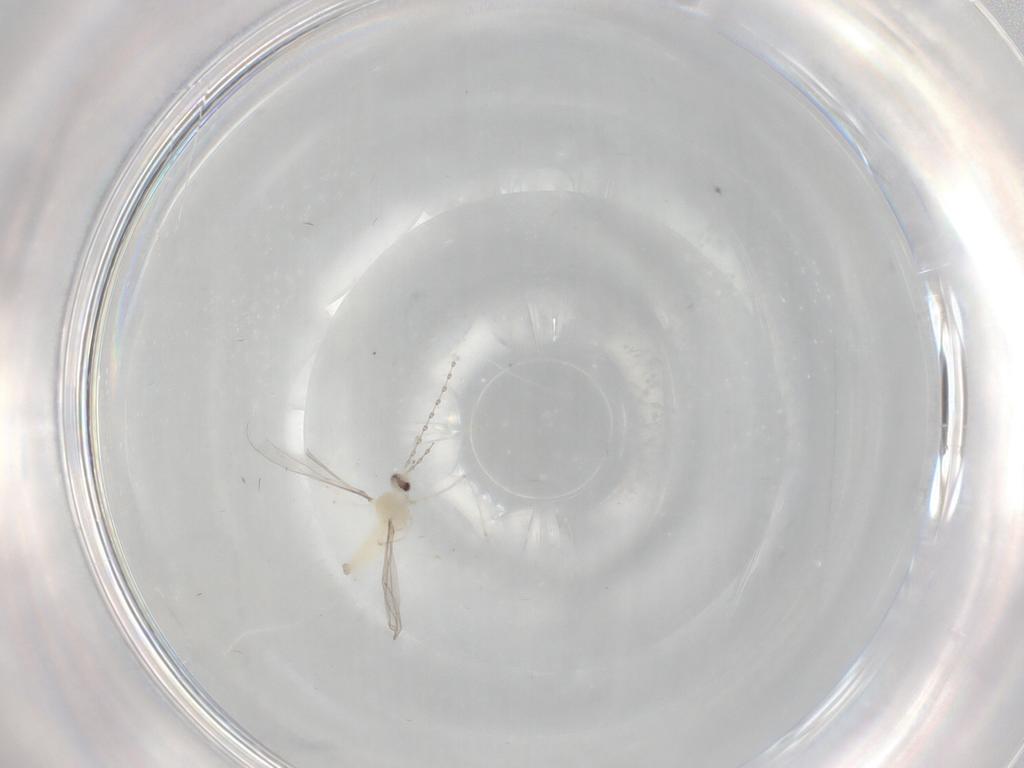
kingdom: Animalia
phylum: Arthropoda
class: Insecta
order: Diptera
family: Cecidomyiidae
